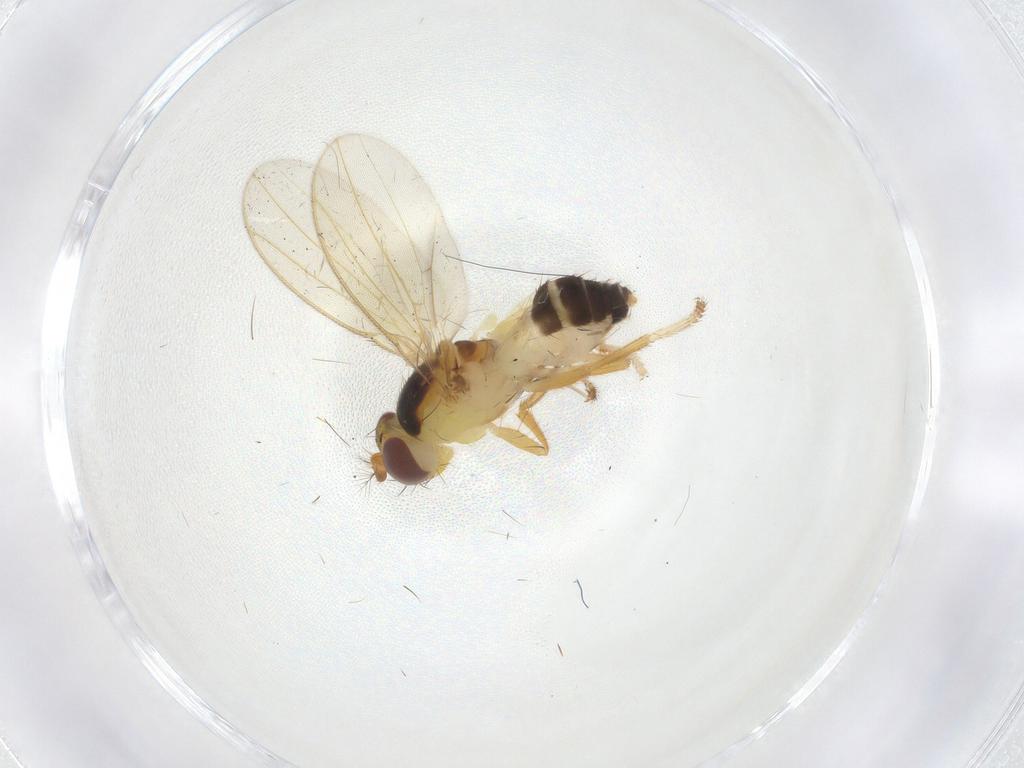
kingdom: Animalia
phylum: Arthropoda
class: Insecta
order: Diptera
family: Periscelididae
